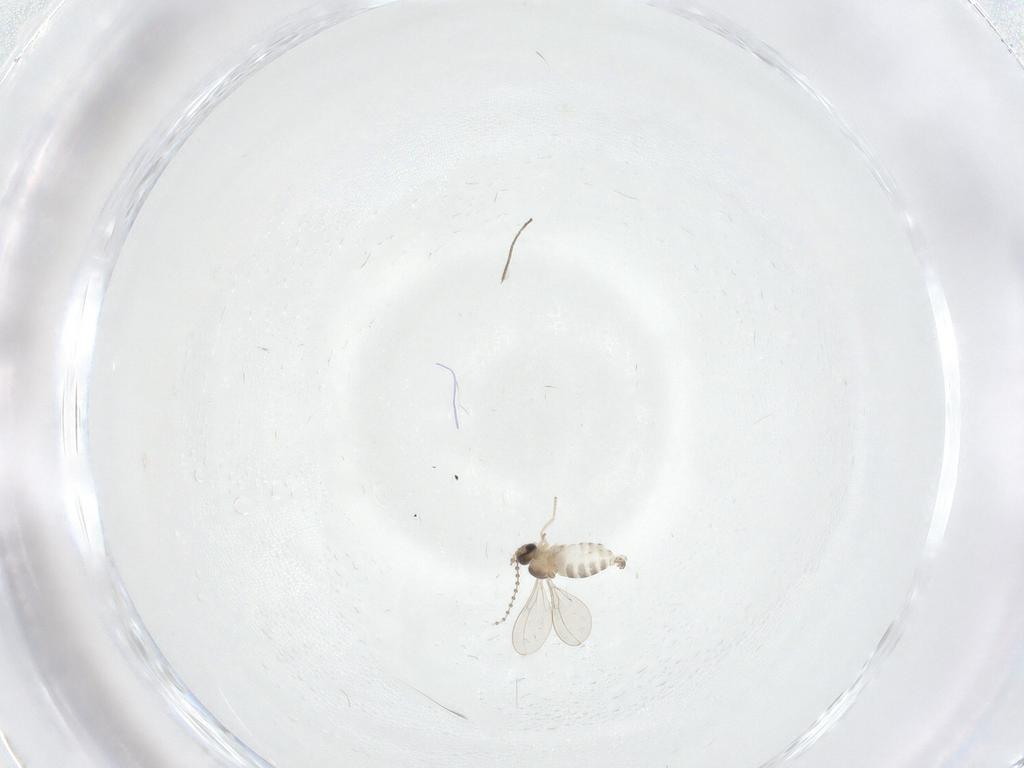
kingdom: Animalia
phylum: Arthropoda
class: Insecta
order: Diptera
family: Cecidomyiidae
